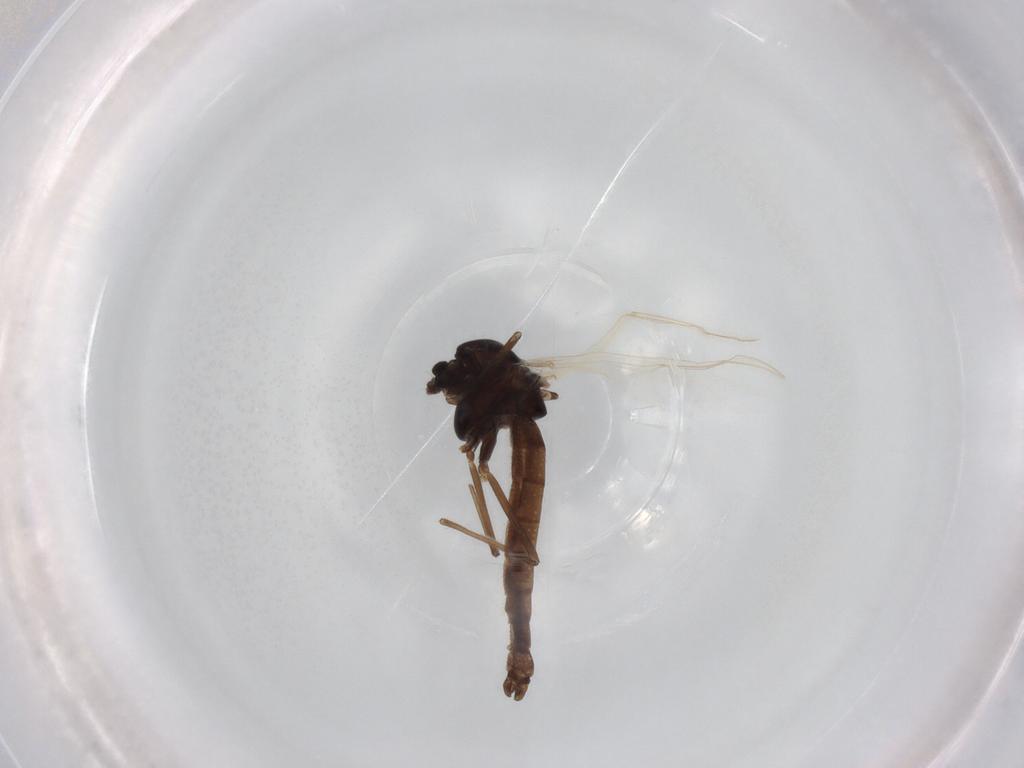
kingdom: Animalia
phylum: Arthropoda
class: Insecta
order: Diptera
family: Chironomidae
